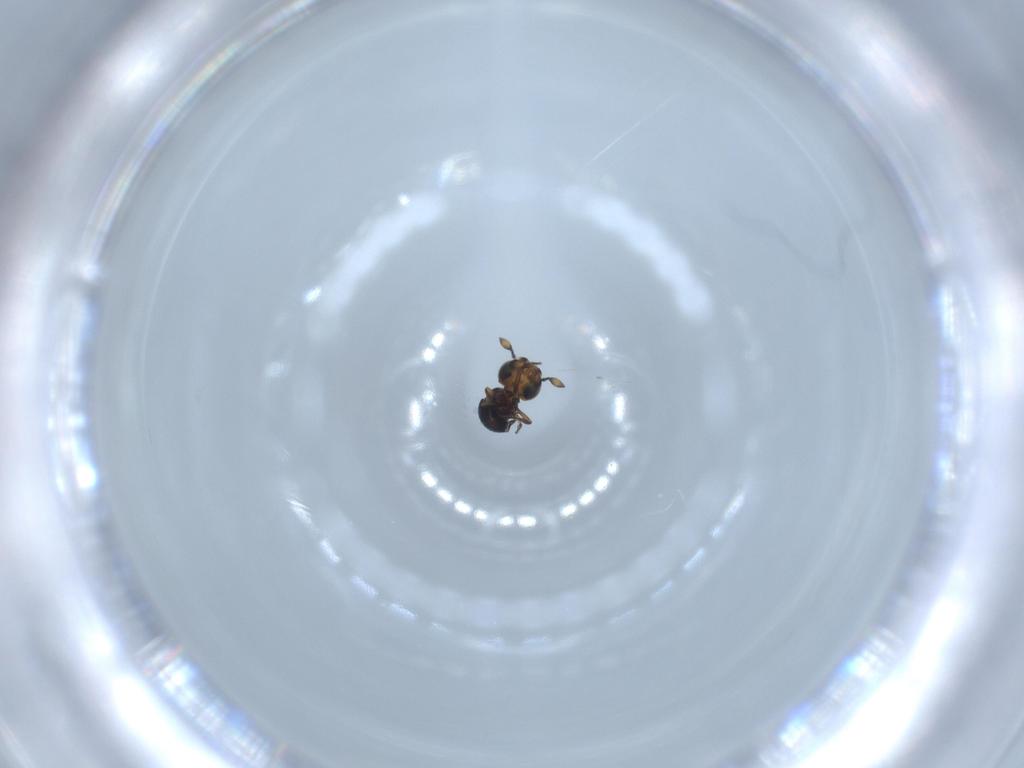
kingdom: Animalia
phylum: Arthropoda
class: Insecta
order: Hymenoptera
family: Scelionidae
